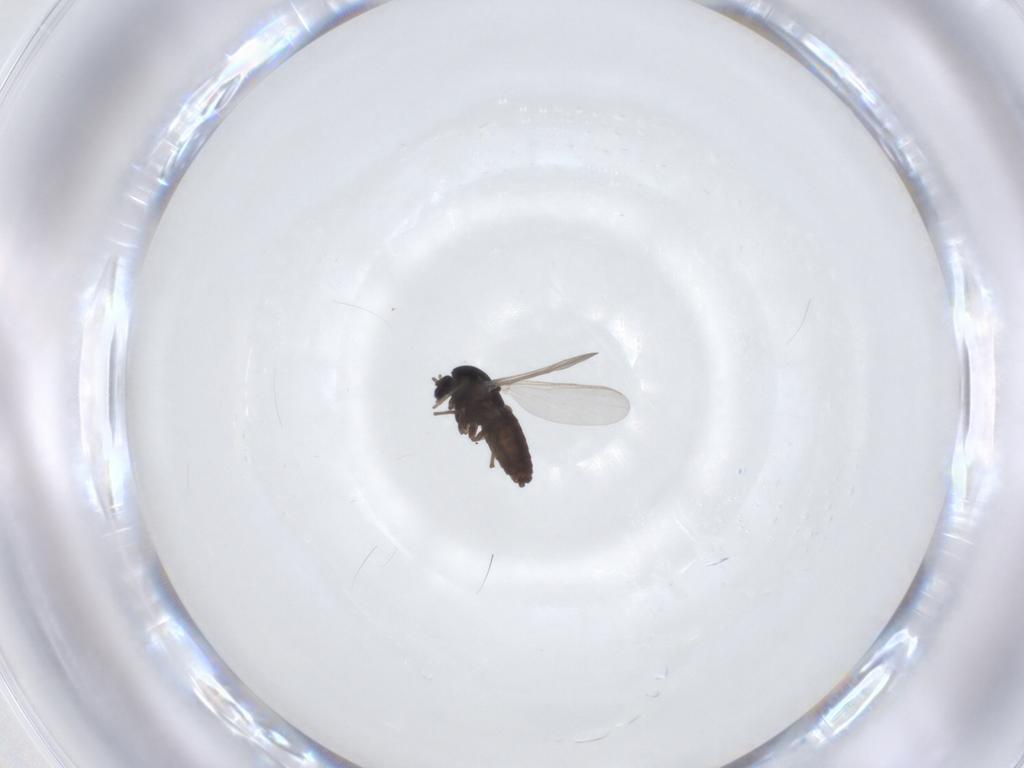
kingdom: Animalia
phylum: Arthropoda
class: Insecta
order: Diptera
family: Chironomidae
